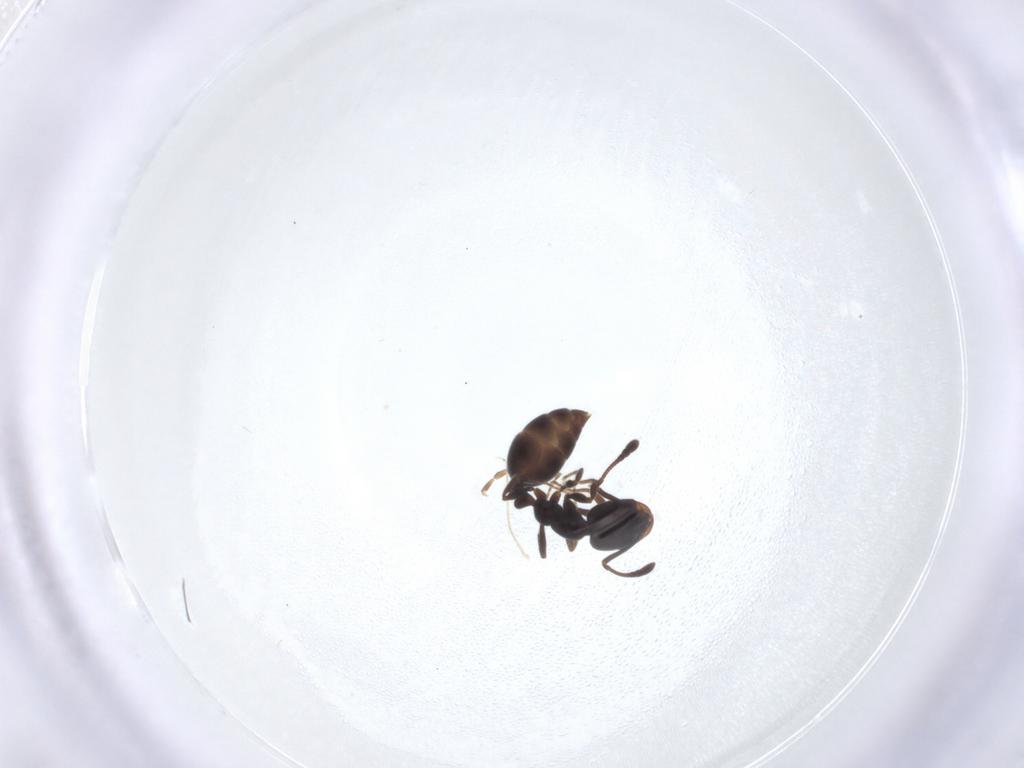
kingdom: Animalia
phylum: Arthropoda
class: Insecta
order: Hymenoptera
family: Formicidae
